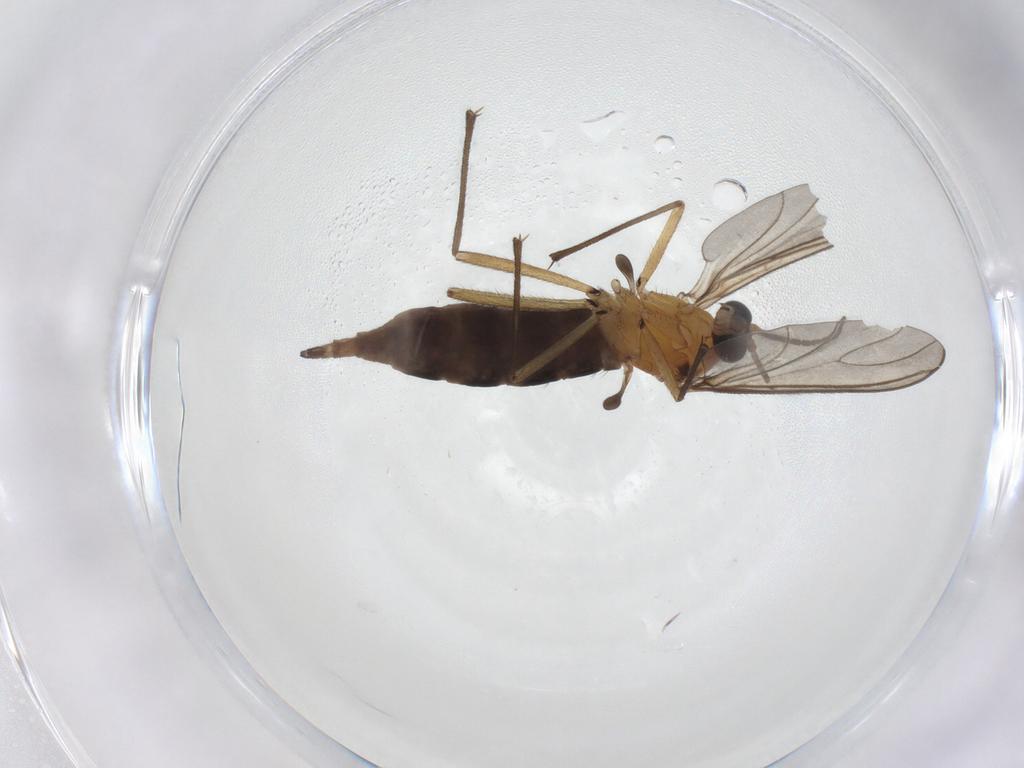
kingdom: Animalia
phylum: Arthropoda
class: Insecta
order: Diptera
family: Sciaridae
